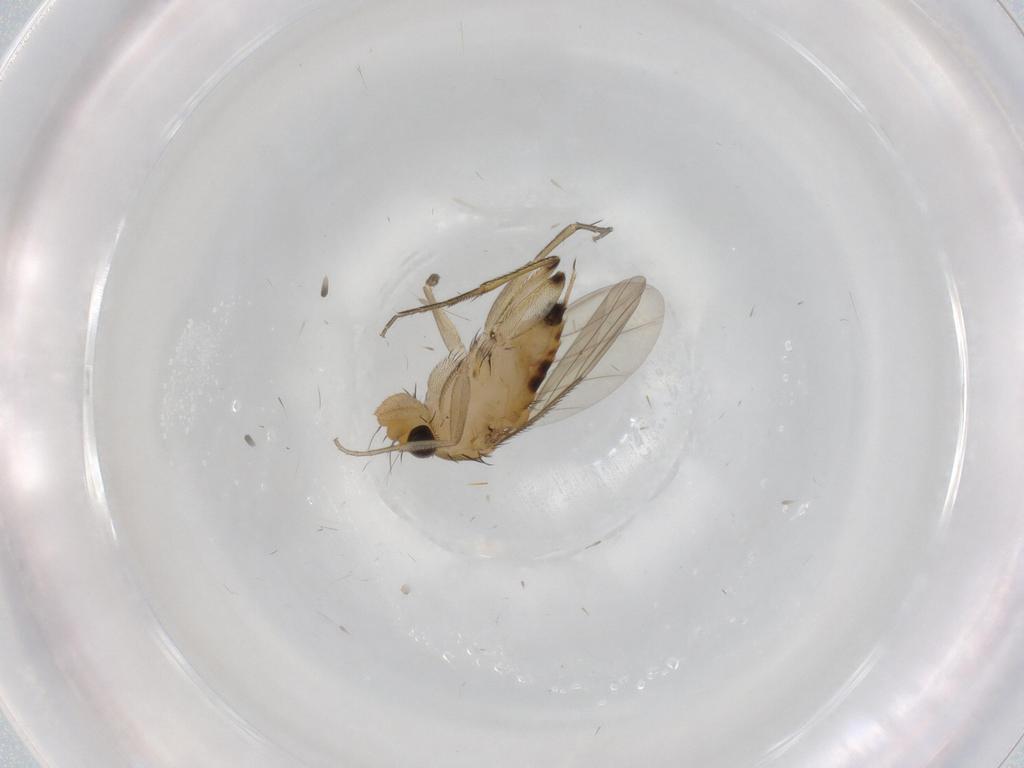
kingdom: Animalia
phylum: Arthropoda
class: Insecta
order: Diptera
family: Phoridae
